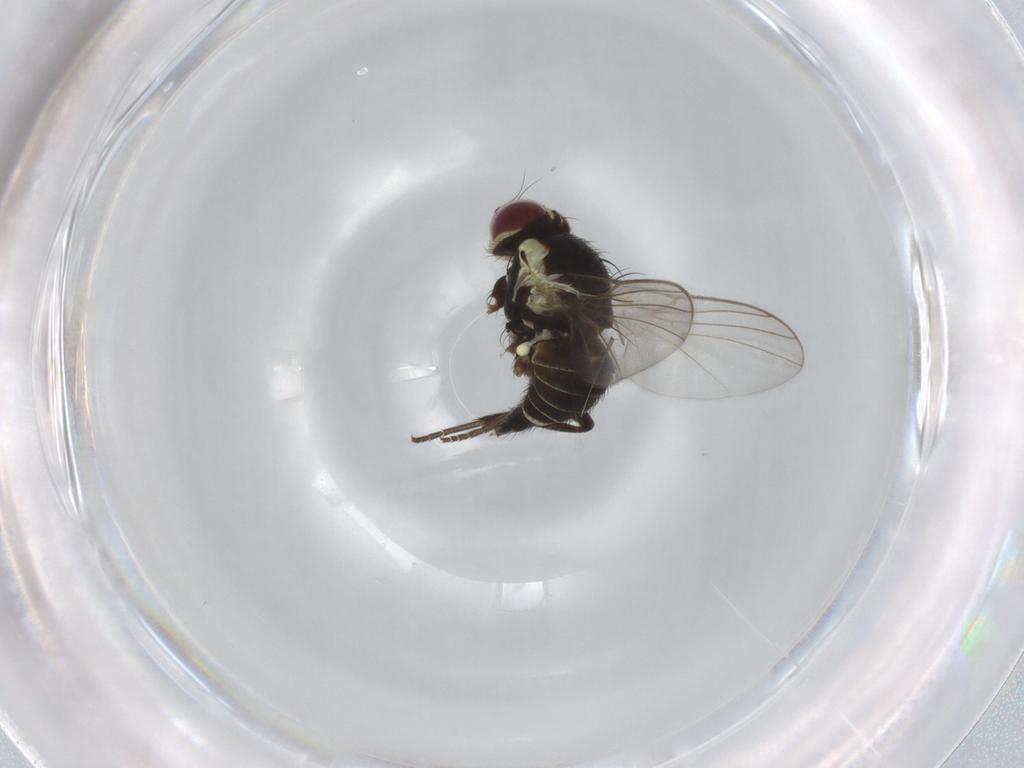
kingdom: Animalia
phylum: Arthropoda
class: Insecta
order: Diptera
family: Agromyzidae
